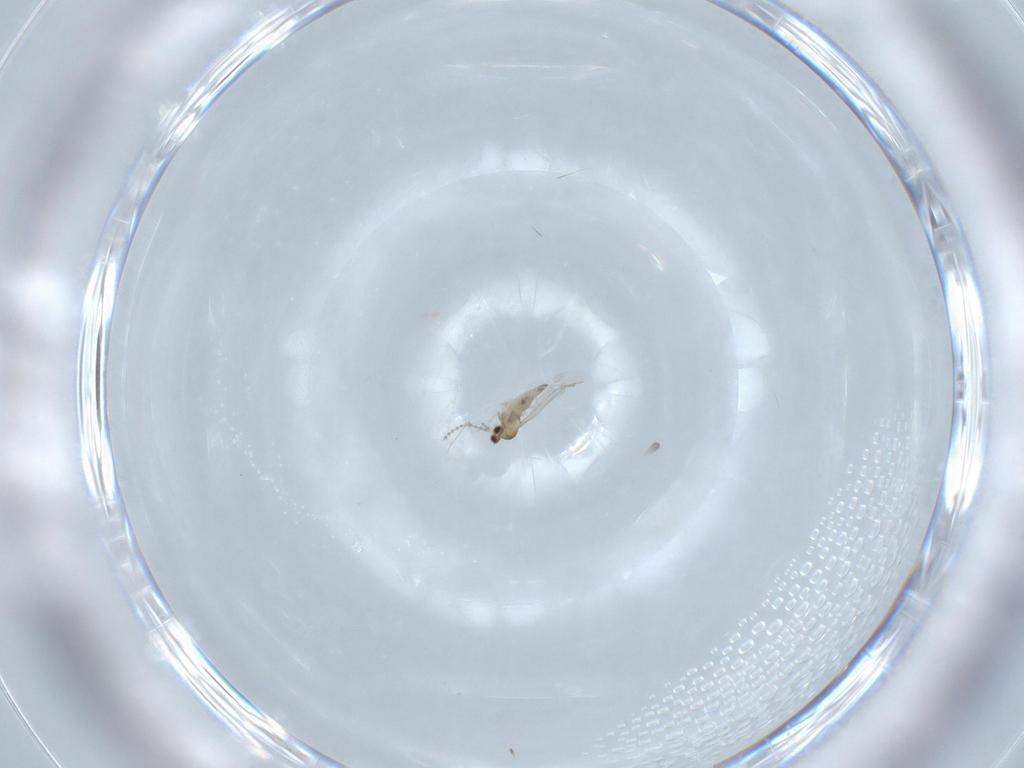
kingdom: Animalia
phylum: Arthropoda
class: Insecta
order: Diptera
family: Cecidomyiidae
